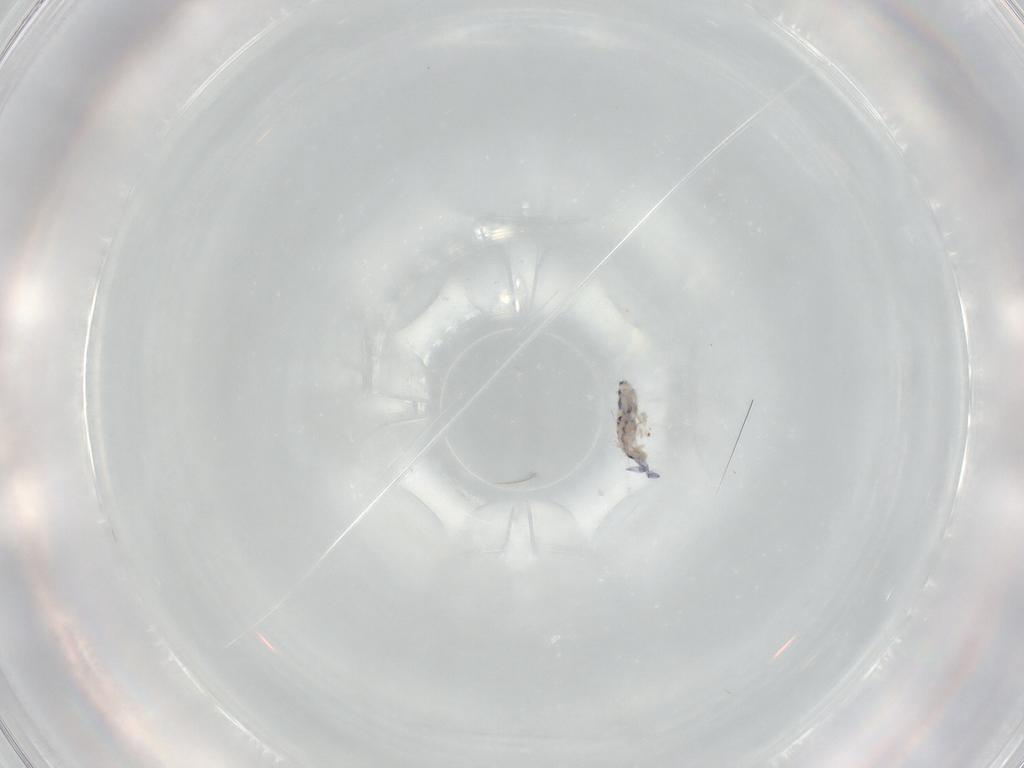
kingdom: Animalia
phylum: Arthropoda
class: Collembola
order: Entomobryomorpha
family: Entomobryidae
